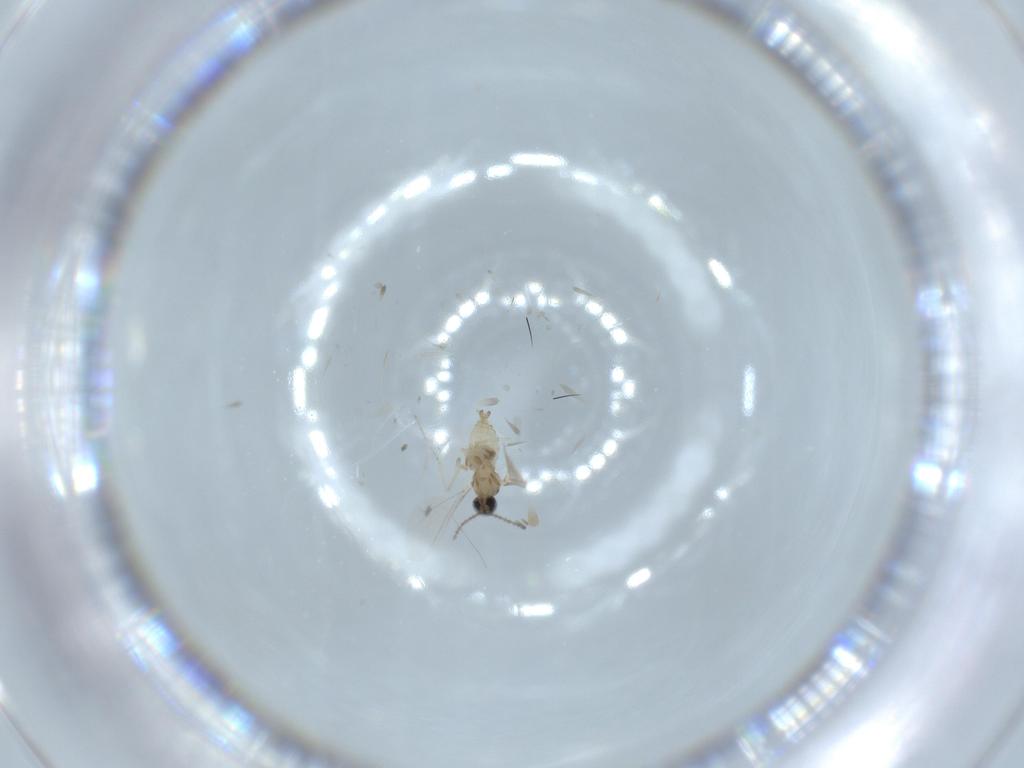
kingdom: Animalia
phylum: Arthropoda
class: Insecta
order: Diptera
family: Cecidomyiidae
